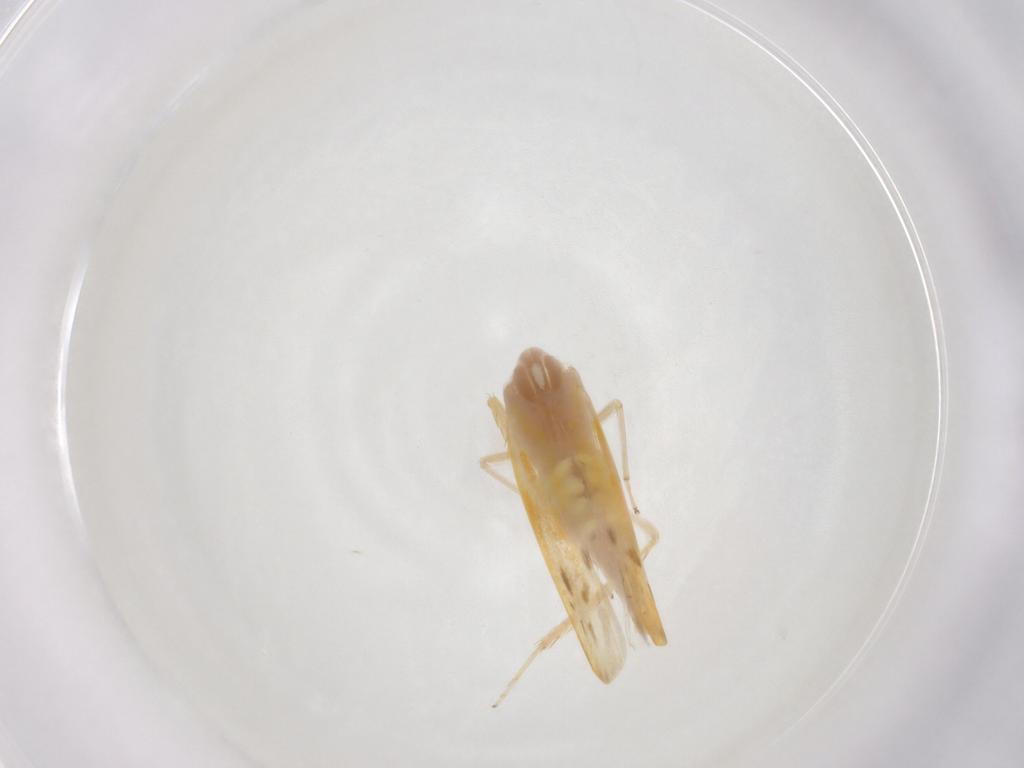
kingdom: Animalia
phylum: Arthropoda
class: Insecta
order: Hemiptera
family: Cicadellidae
